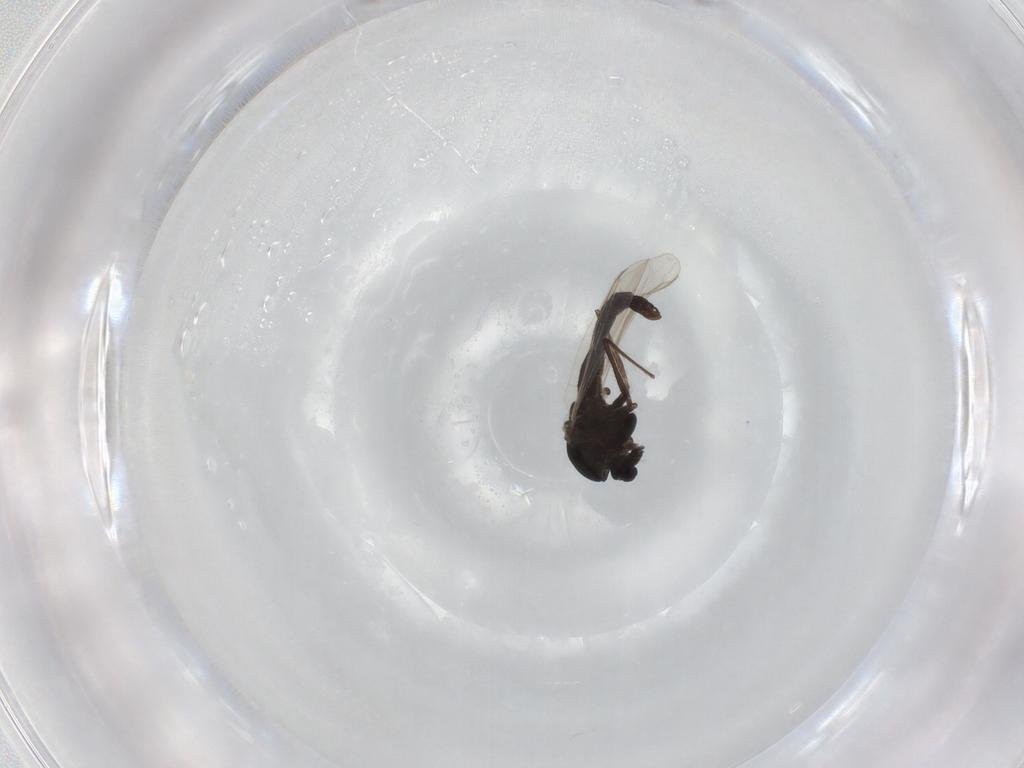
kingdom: Animalia
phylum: Arthropoda
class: Insecta
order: Diptera
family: Chironomidae
